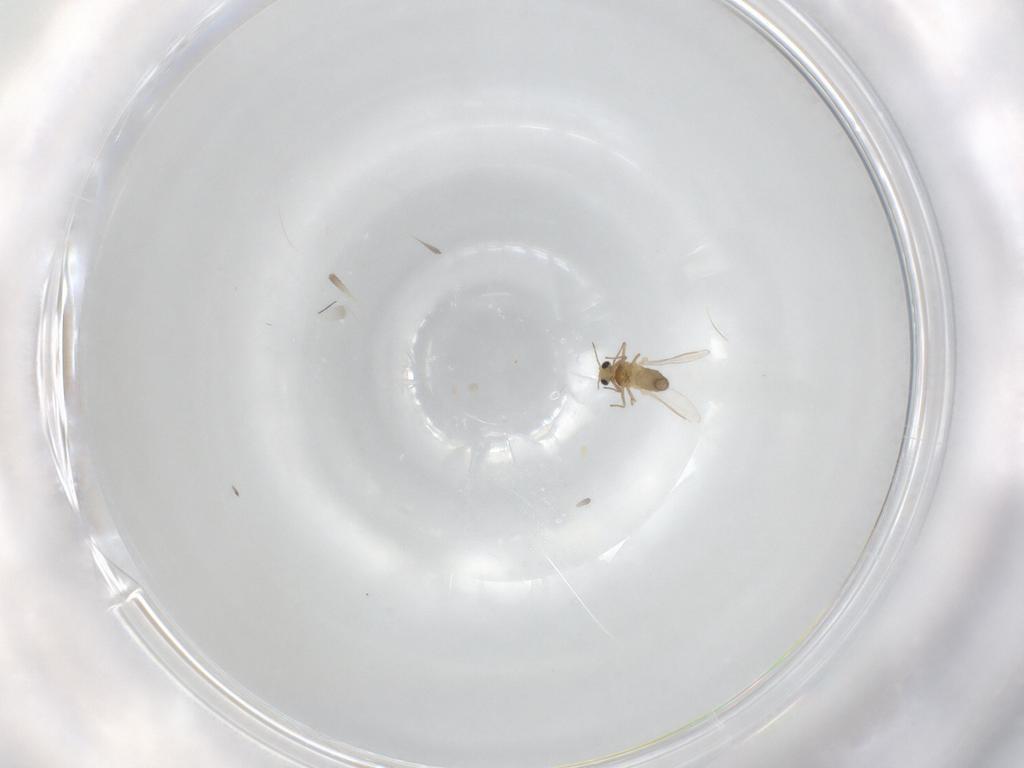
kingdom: Animalia
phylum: Arthropoda
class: Insecta
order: Diptera
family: Chironomidae
